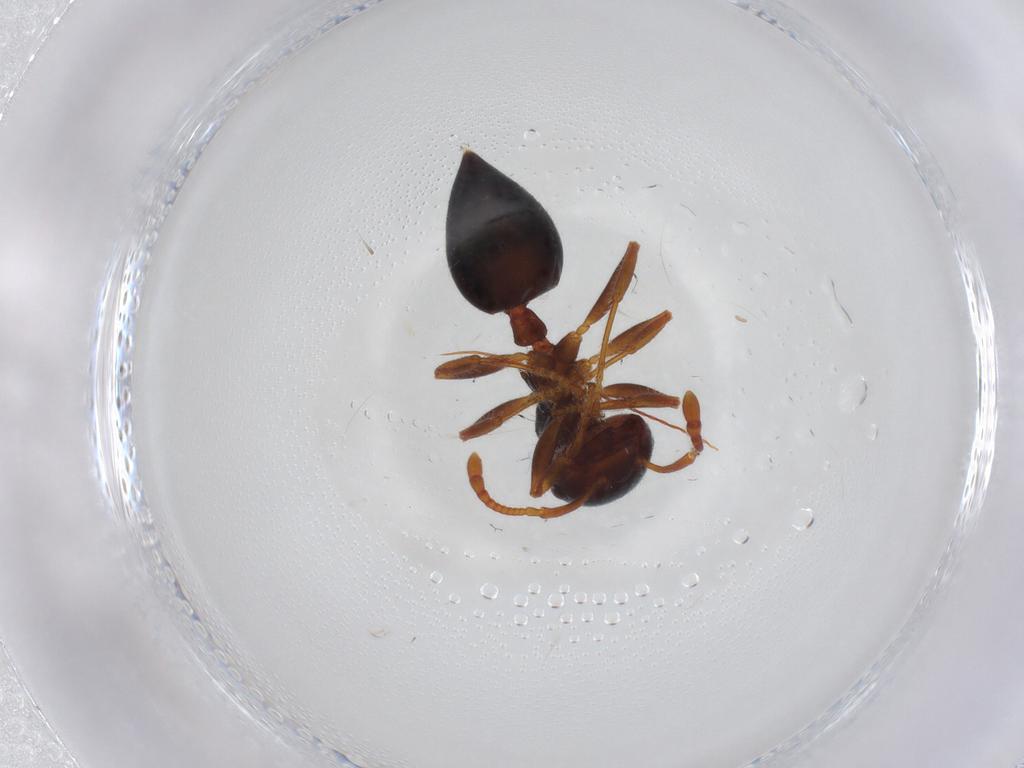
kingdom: Animalia
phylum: Arthropoda
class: Insecta
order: Hymenoptera
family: Formicidae
